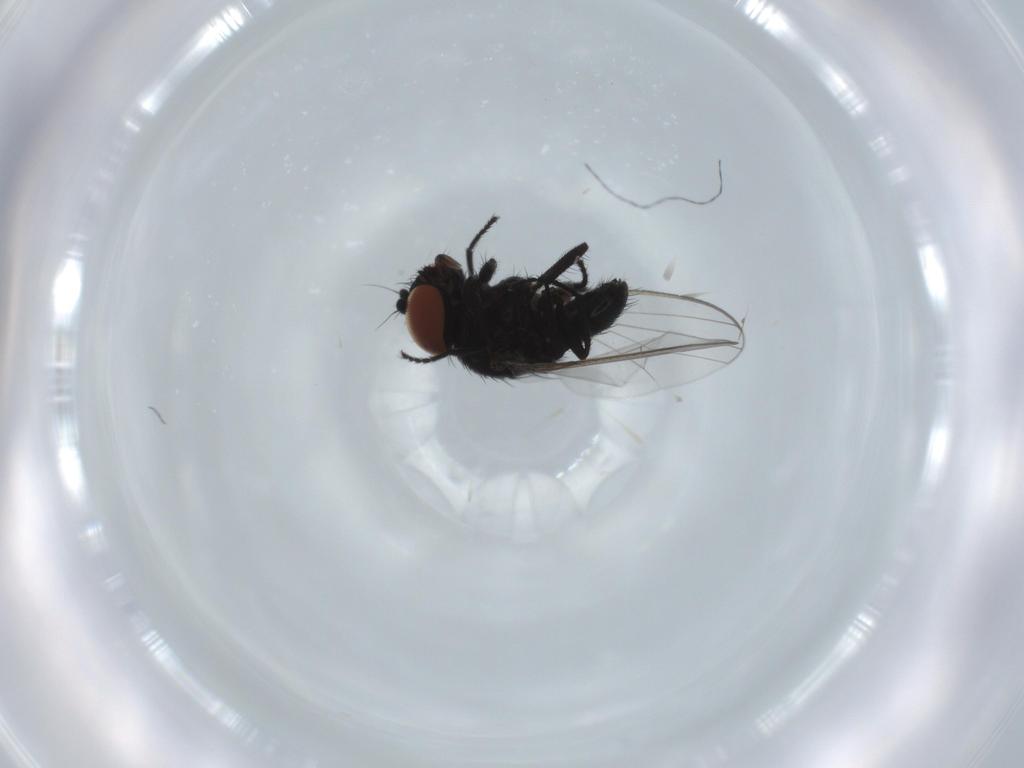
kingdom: Animalia
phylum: Arthropoda
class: Insecta
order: Diptera
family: Milichiidae
